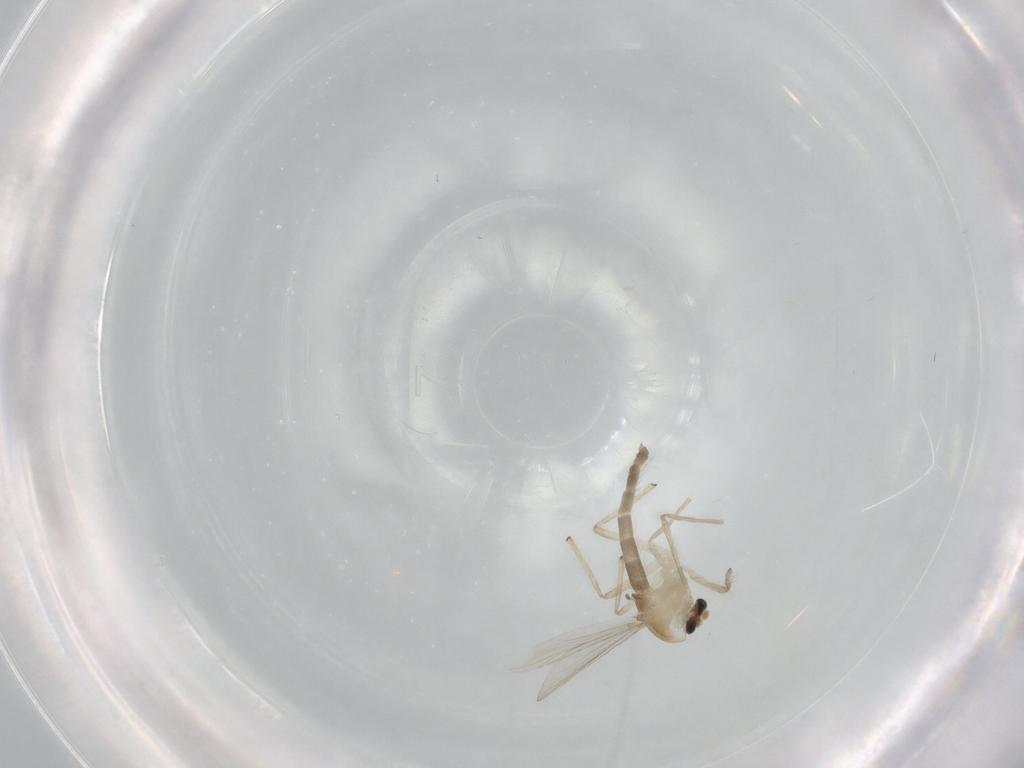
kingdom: Animalia
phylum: Arthropoda
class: Insecta
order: Diptera
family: Chironomidae
